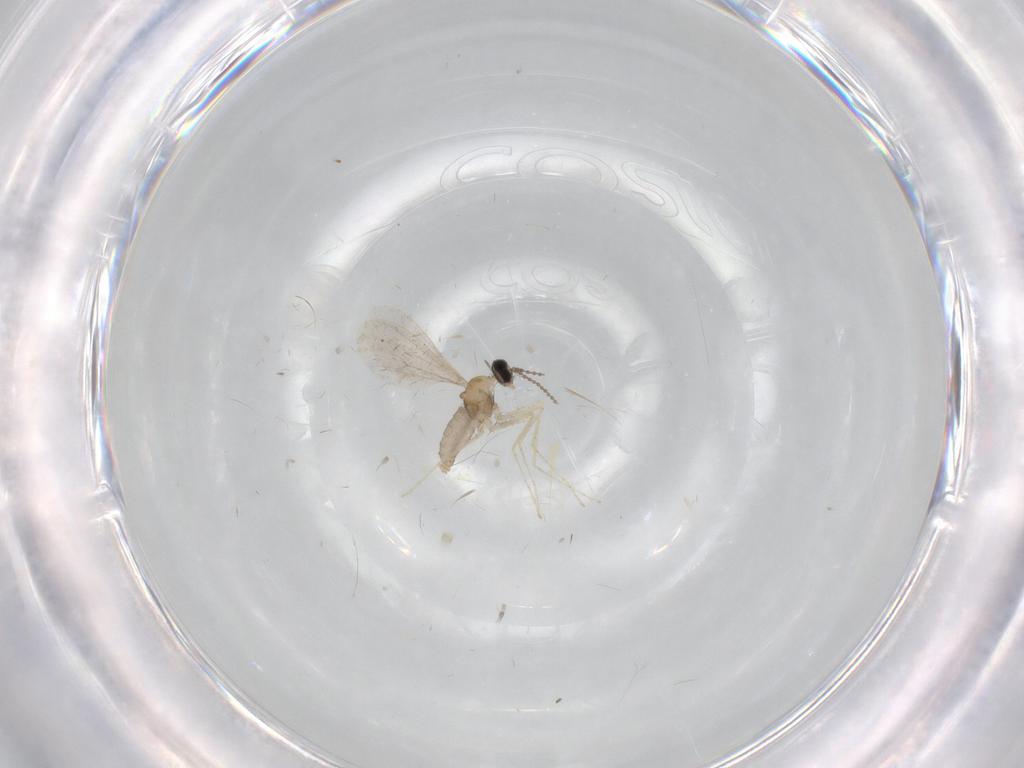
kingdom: Animalia
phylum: Arthropoda
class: Insecta
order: Diptera
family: Cecidomyiidae
